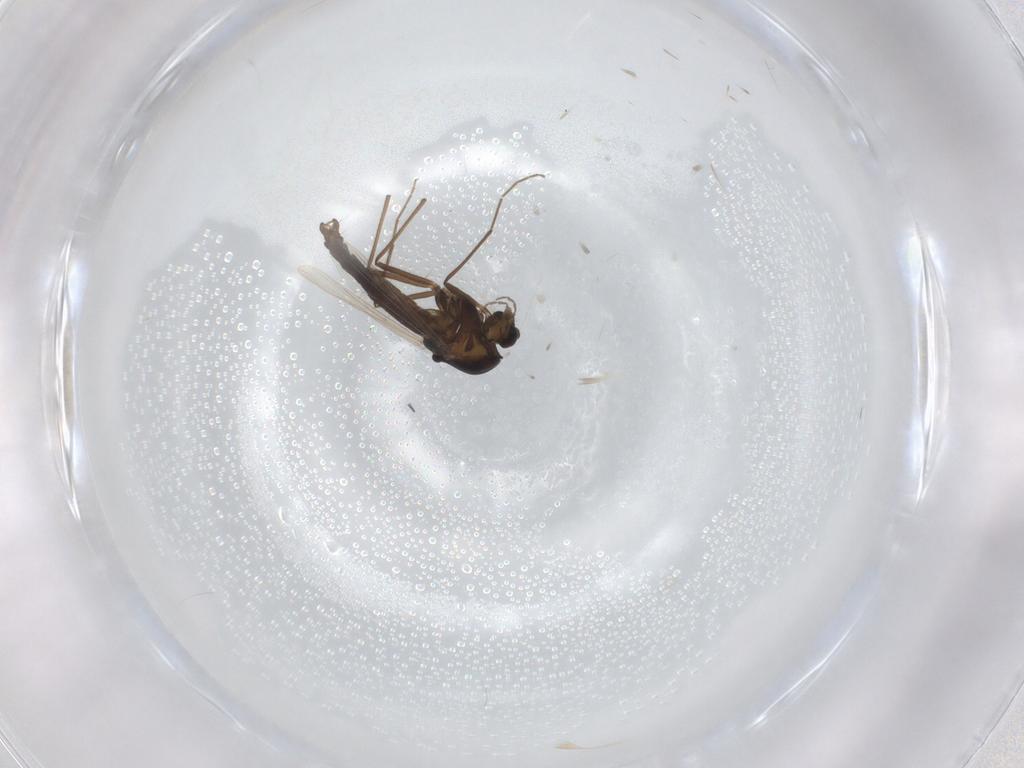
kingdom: Animalia
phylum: Arthropoda
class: Insecta
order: Diptera
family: Chironomidae
